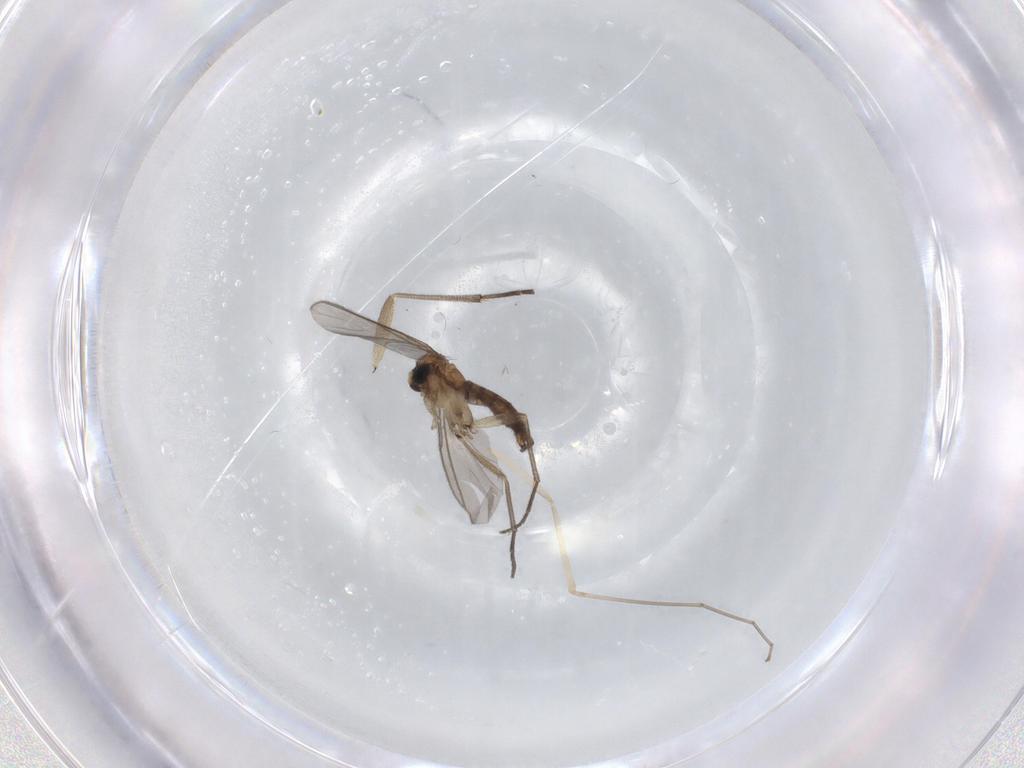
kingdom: Animalia
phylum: Arthropoda
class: Insecta
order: Diptera
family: Cecidomyiidae
